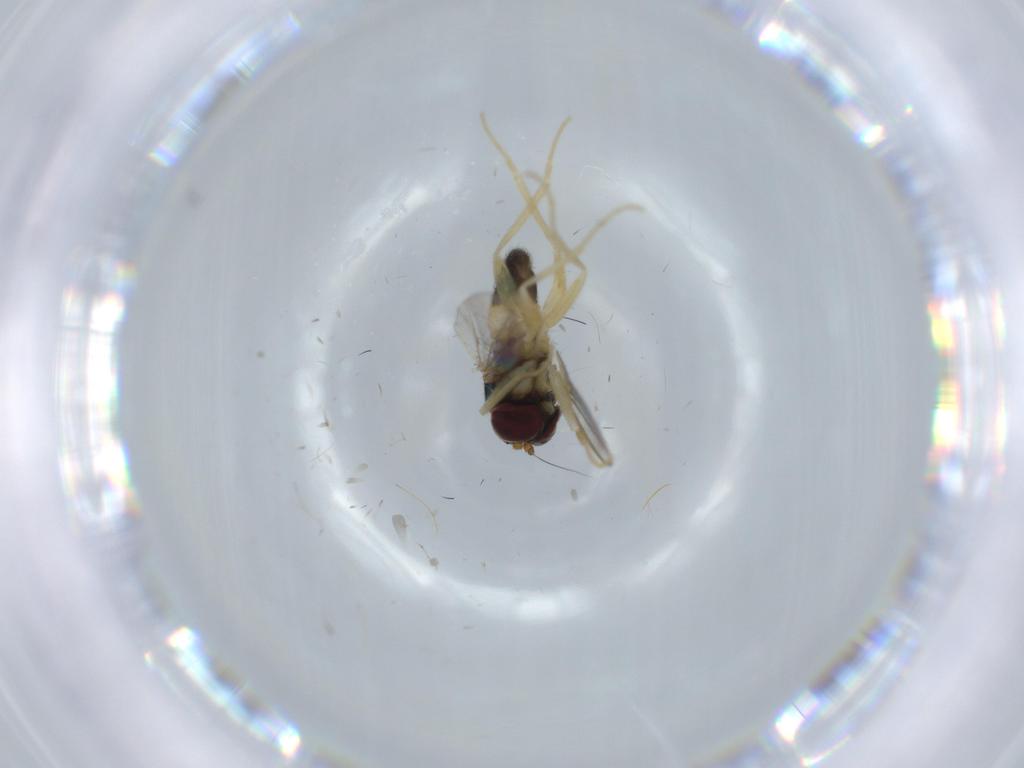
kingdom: Animalia
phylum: Arthropoda
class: Insecta
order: Diptera
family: Dolichopodidae
